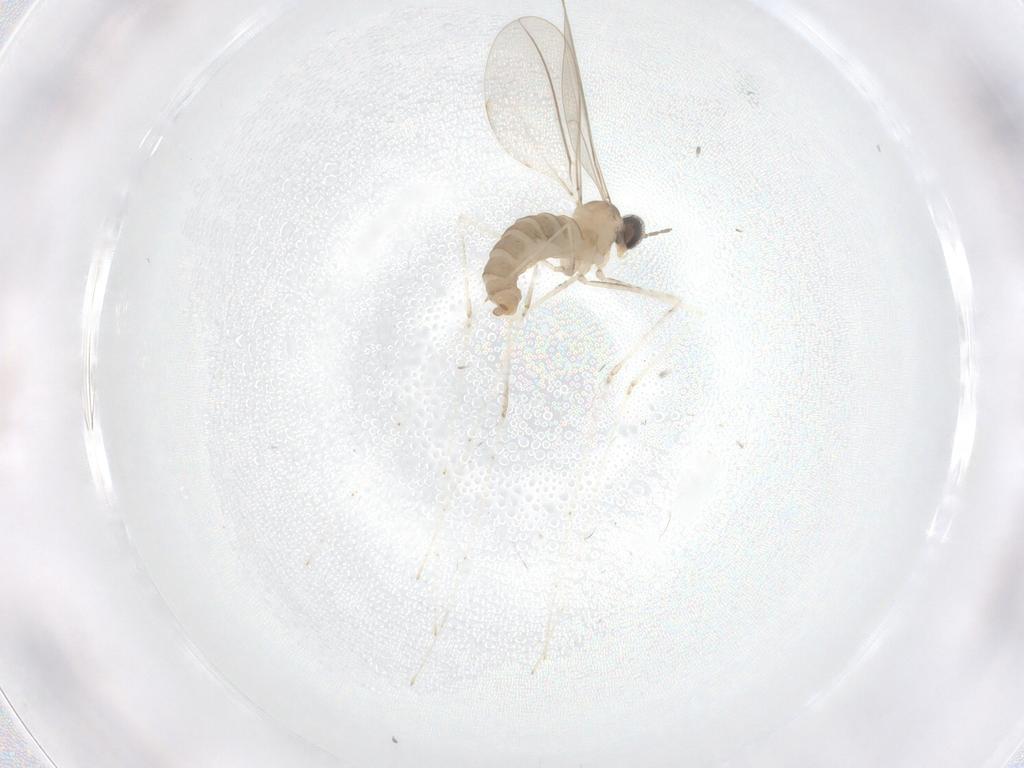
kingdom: Animalia
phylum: Arthropoda
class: Insecta
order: Diptera
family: Cecidomyiidae
